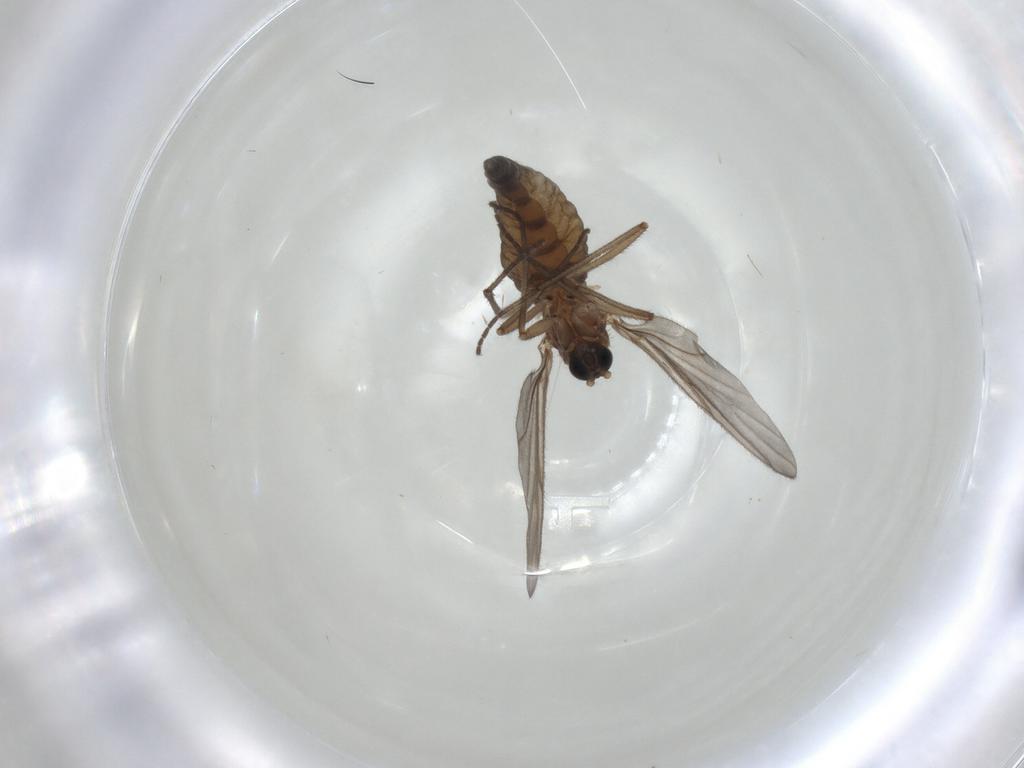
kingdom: Animalia
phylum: Arthropoda
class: Insecta
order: Diptera
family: Sciaridae
